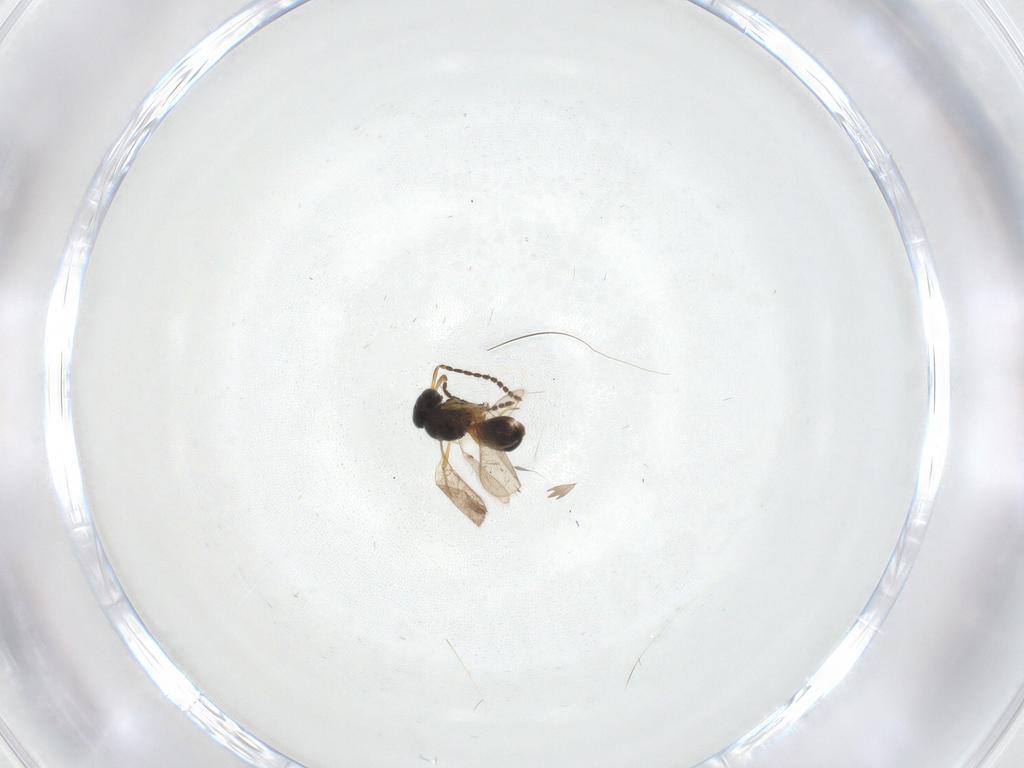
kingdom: Animalia
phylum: Arthropoda
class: Insecta
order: Hymenoptera
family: Scelionidae
